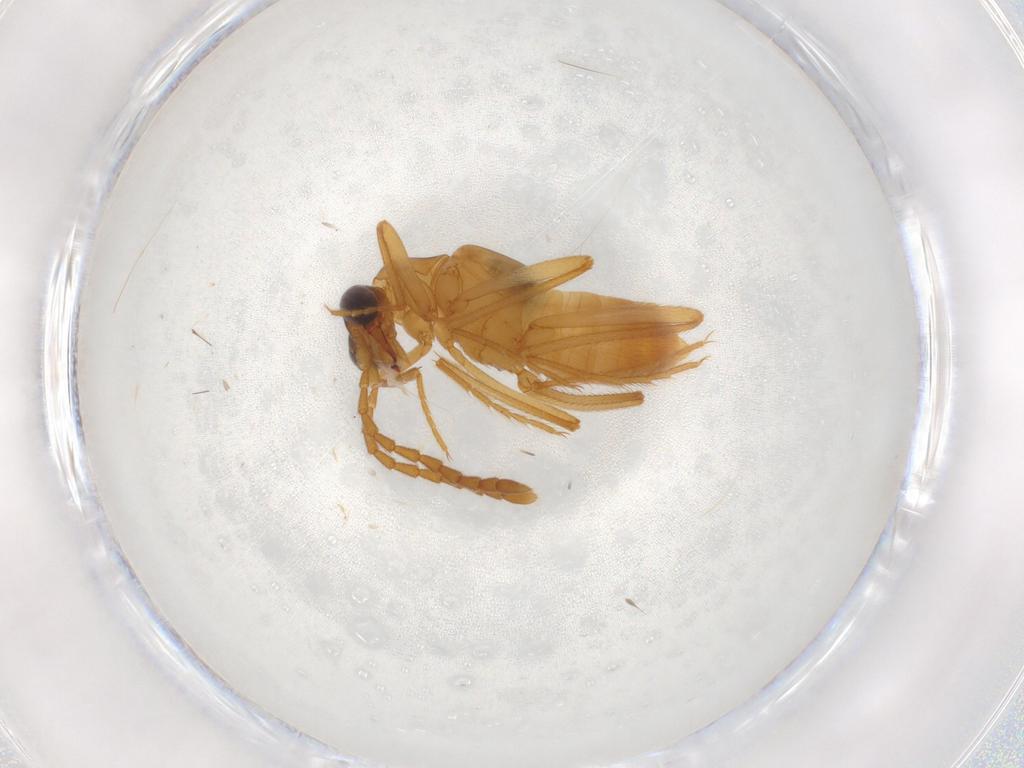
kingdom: Animalia
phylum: Arthropoda
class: Insecta
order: Coleoptera
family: Staphylinidae
